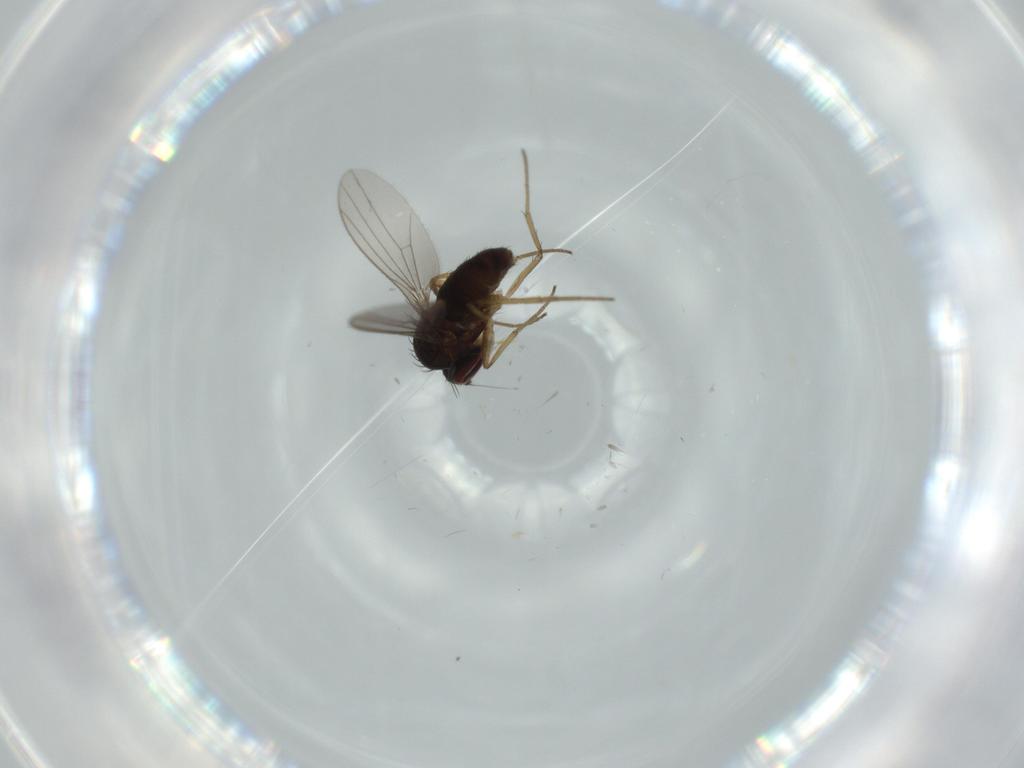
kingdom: Animalia
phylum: Arthropoda
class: Insecta
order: Diptera
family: Dolichopodidae
